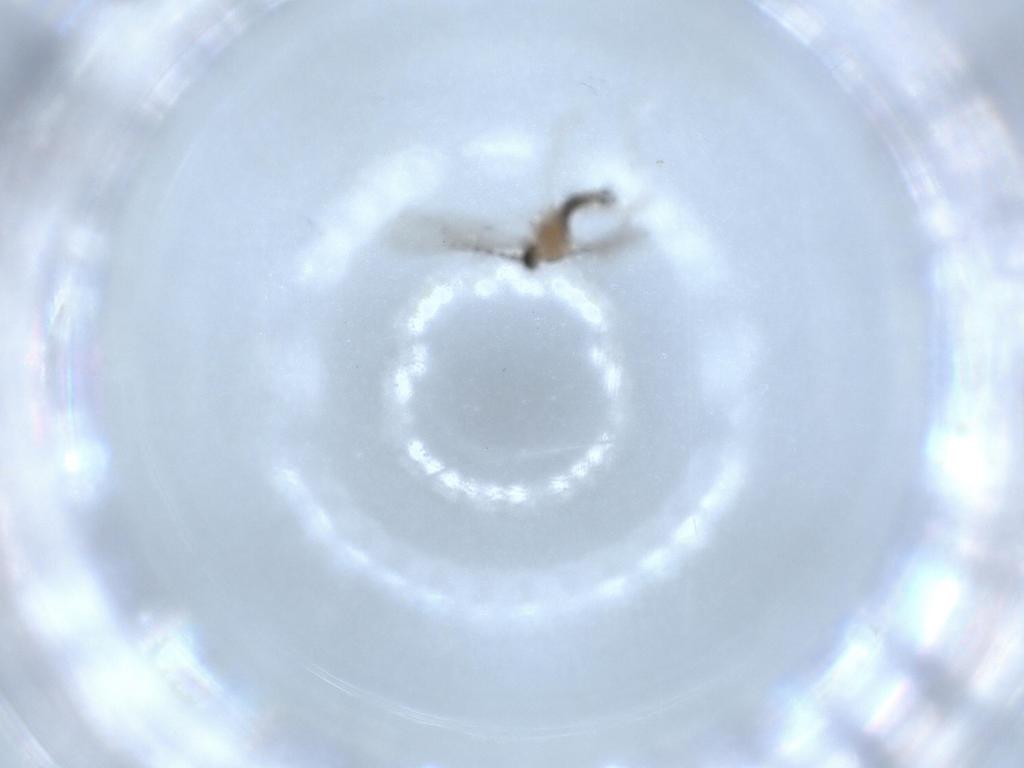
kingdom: Animalia
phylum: Arthropoda
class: Insecta
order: Diptera
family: Cecidomyiidae
